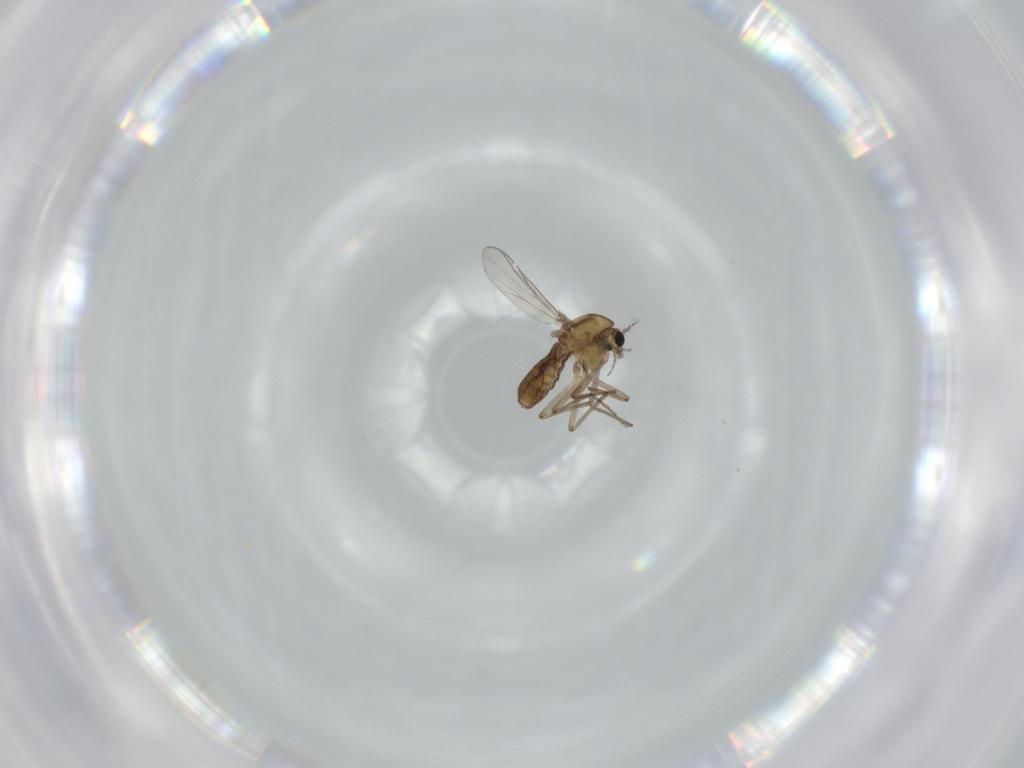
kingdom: Animalia
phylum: Arthropoda
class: Insecta
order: Diptera
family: Chironomidae
